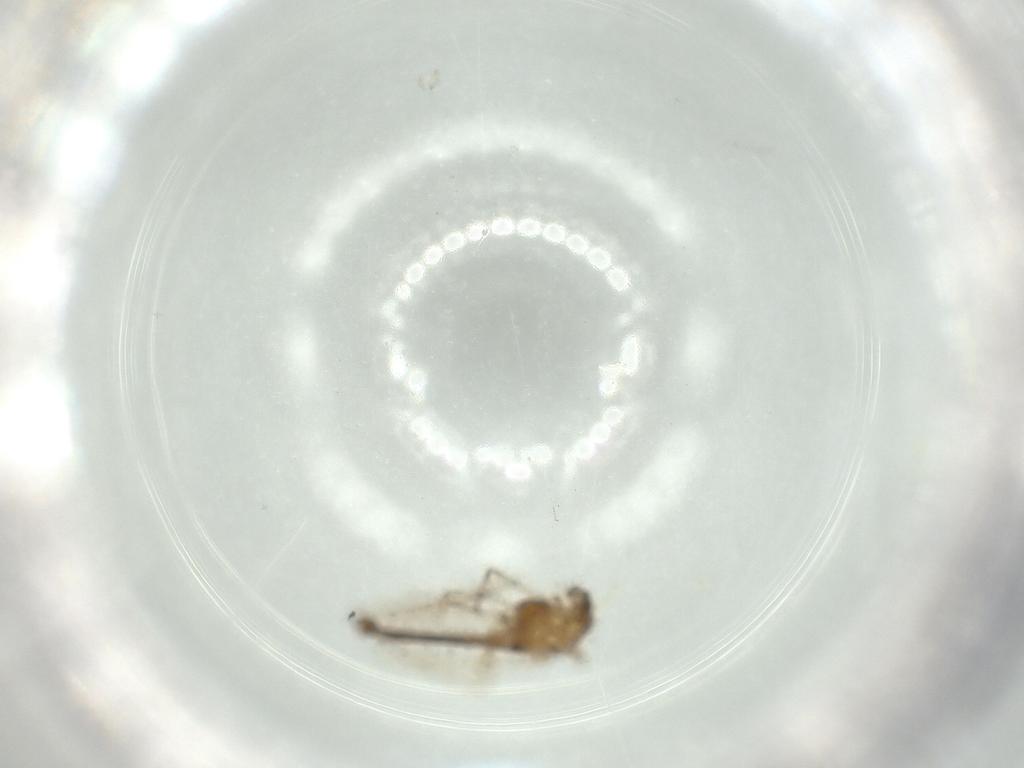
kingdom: Animalia
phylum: Arthropoda
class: Insecta
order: Diptera
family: Chironomidae
